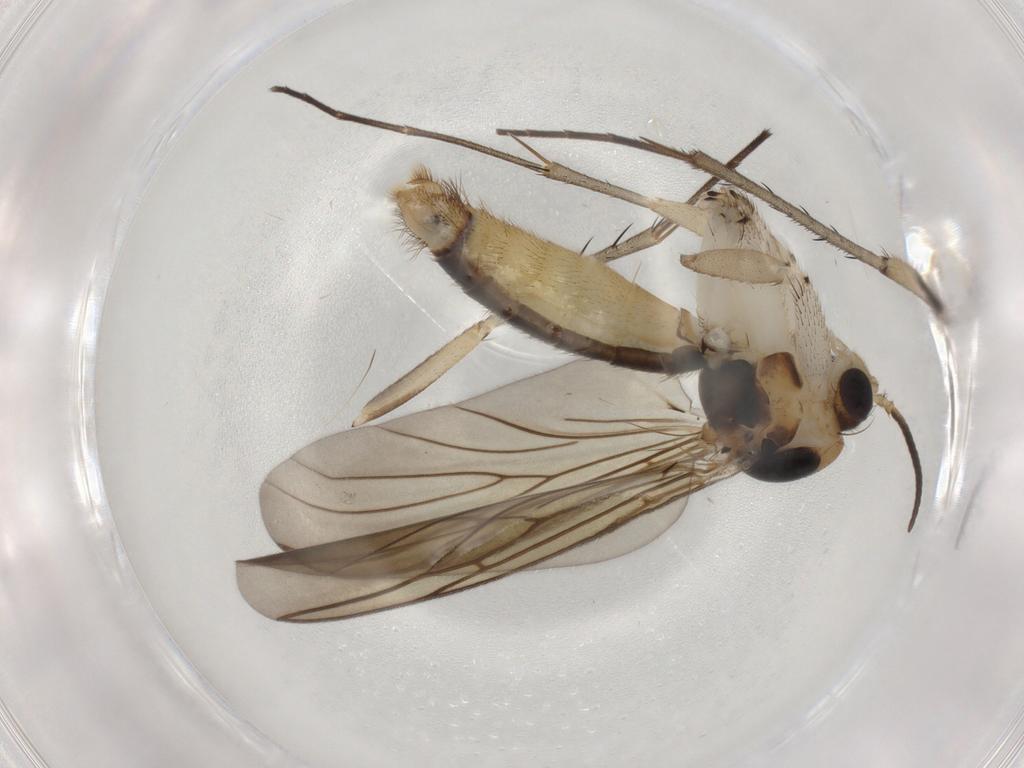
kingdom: Animalia
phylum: Arthropoda
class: Insecta
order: Diptera
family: Mycetophilidae
